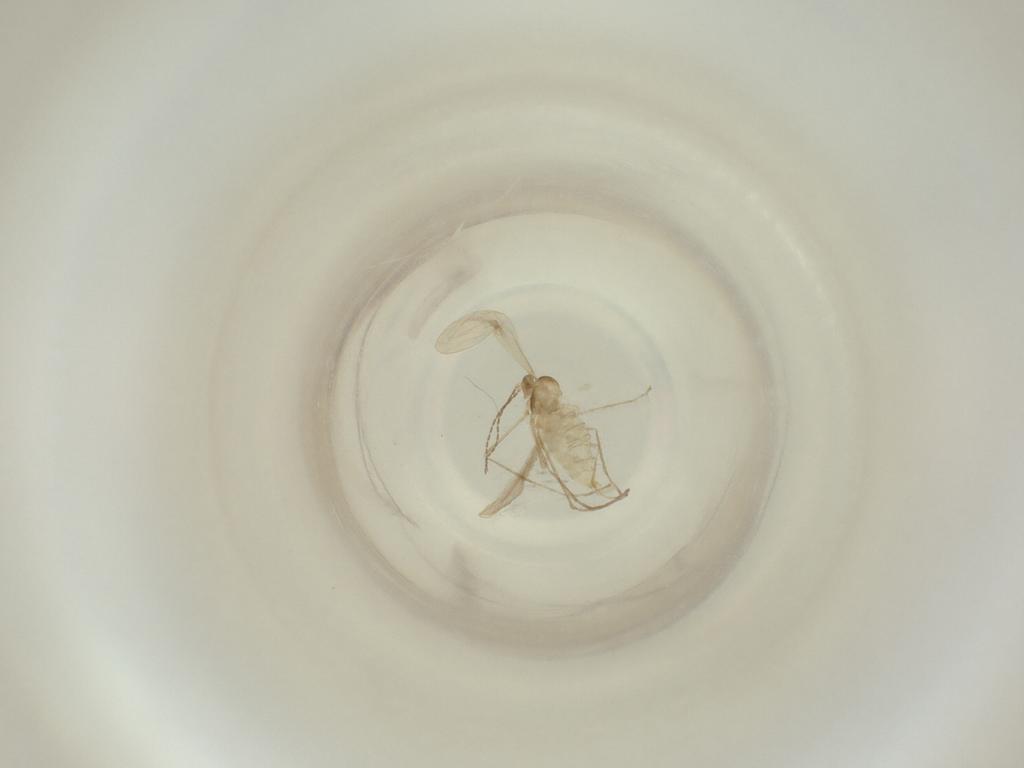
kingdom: Animalia
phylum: Arthropoda
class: Insecta
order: Diptera
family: Cecidomyiidae
